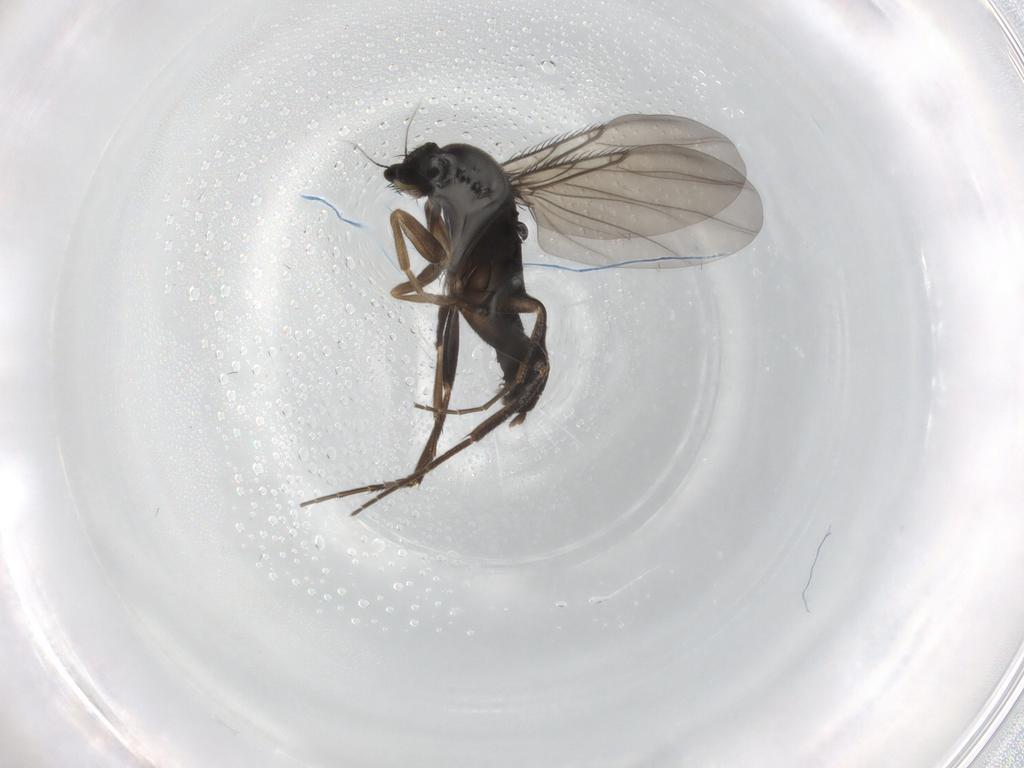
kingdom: Animalia
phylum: Arthropoda
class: Insecta
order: Diptera
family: Phoridae
